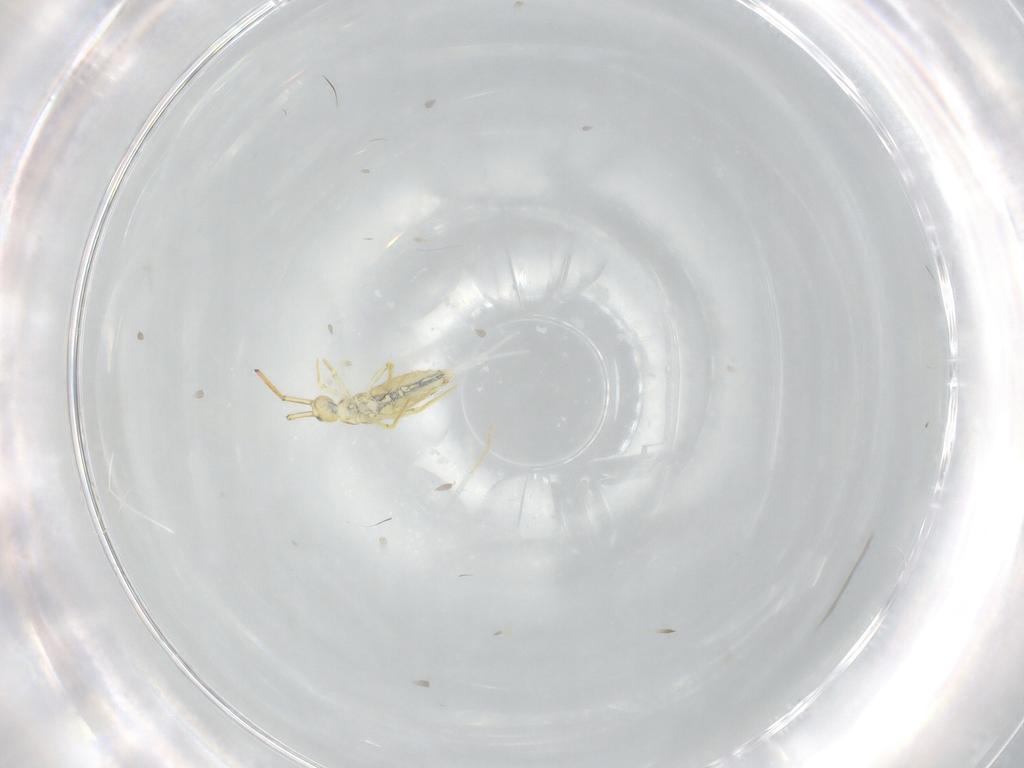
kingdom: Animalia
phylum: Arthropoda
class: Collembola
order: Entomobryomorpha
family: Paronellidae
